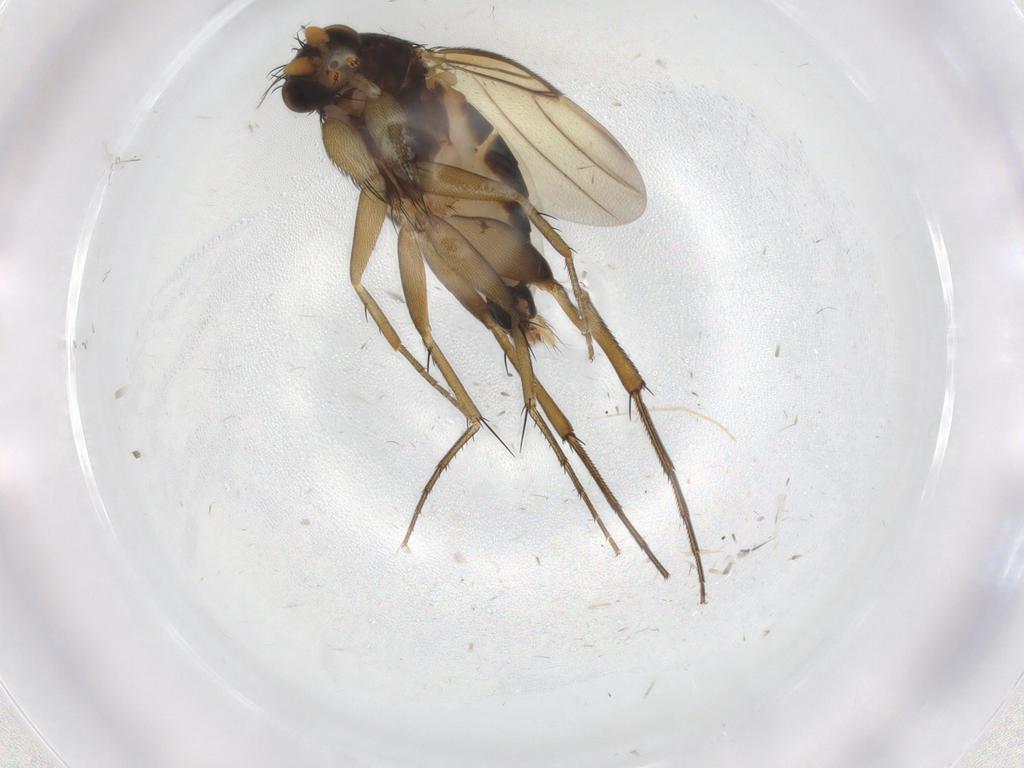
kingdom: Animalia
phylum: Arthropoda
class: Insecta
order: Diptera
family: Phoridae
